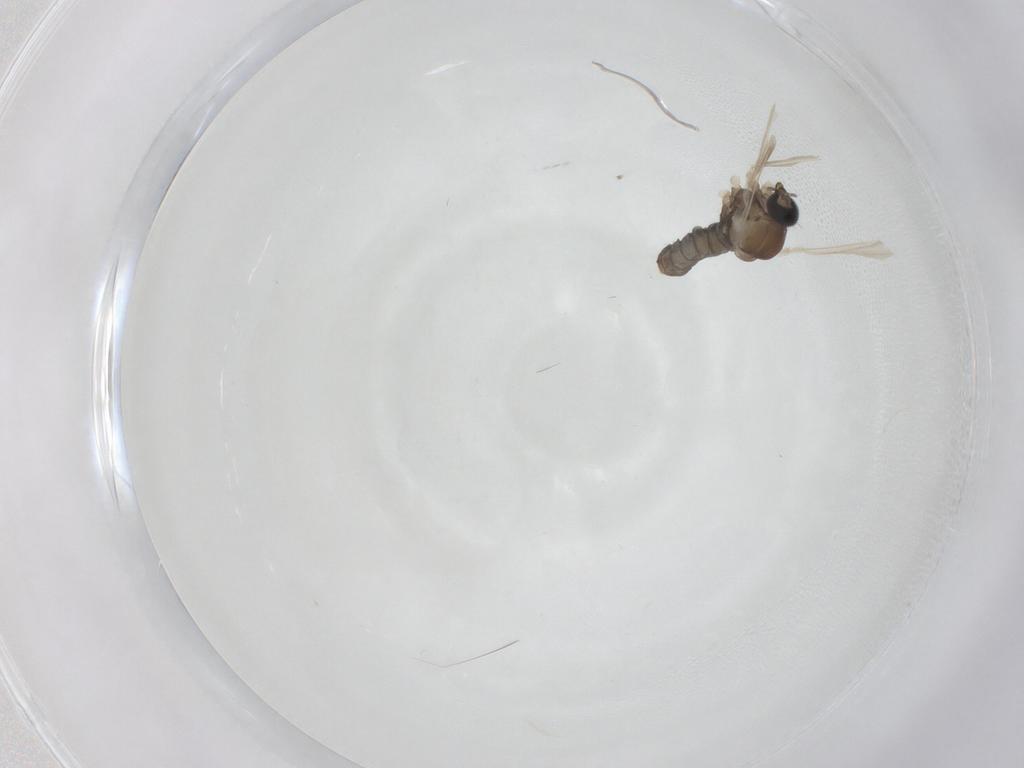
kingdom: Animalia
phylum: Arthropoda
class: Insecta
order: Diptera
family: Cecidomyiidae
